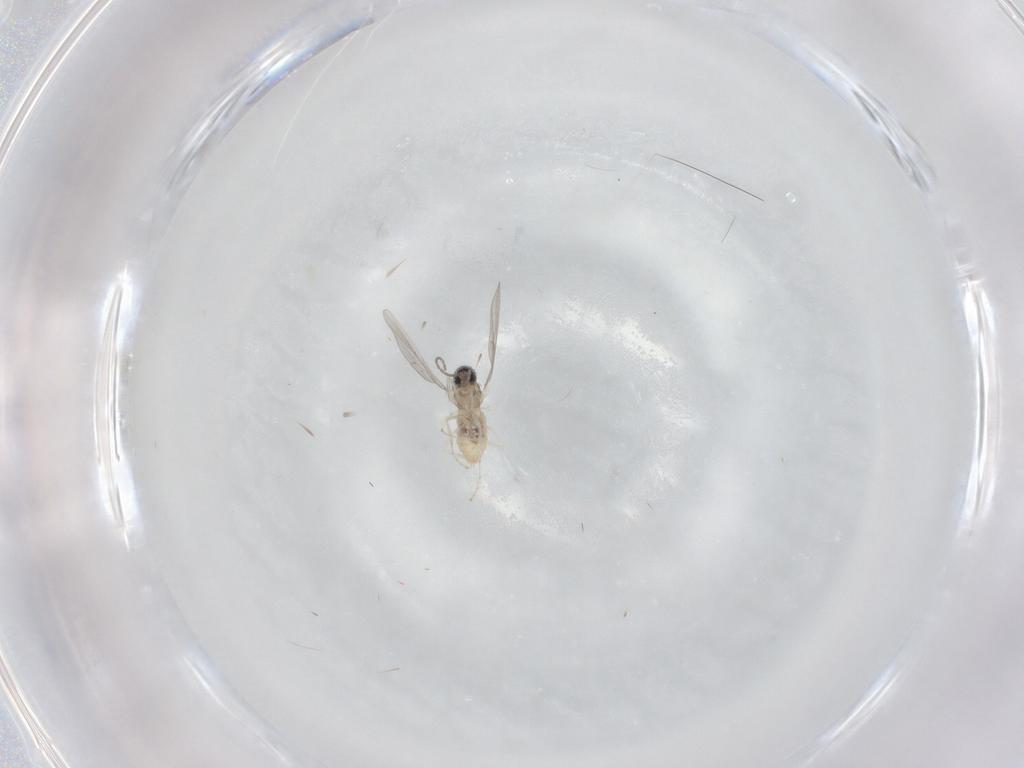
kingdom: Animalia
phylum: Arthropoda
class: Insecta
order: Diptera
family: Cecidomyiidae
